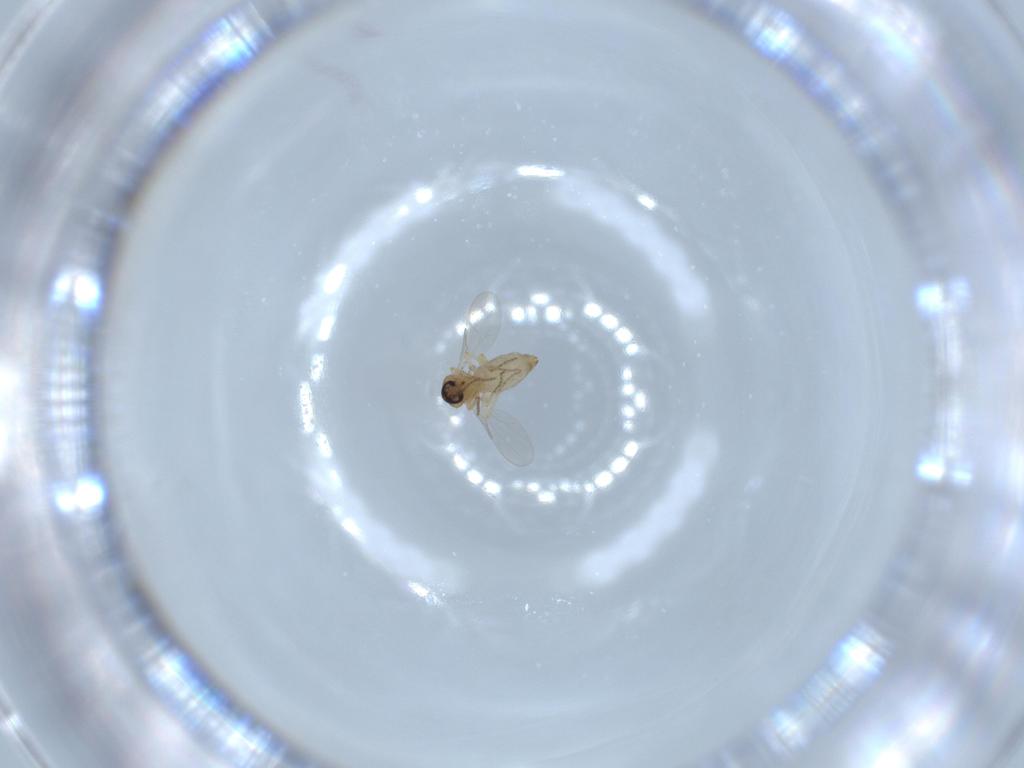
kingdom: Animalia
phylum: Arthropoda
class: Insecta
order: Diptera
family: Ceratopogonidae
